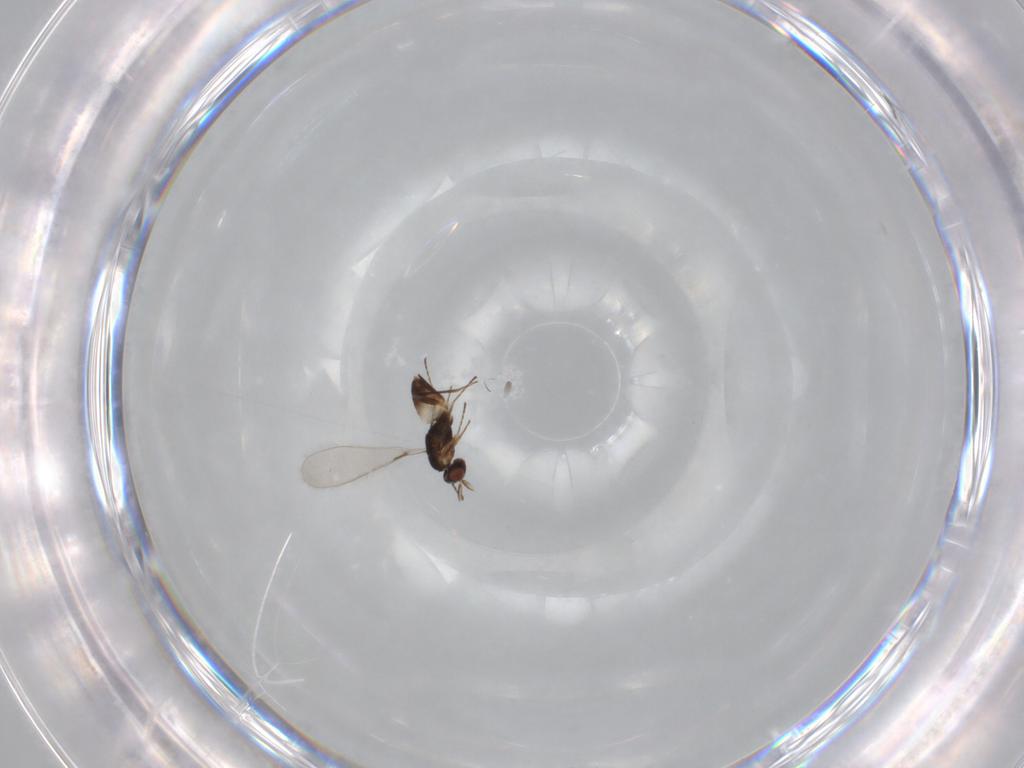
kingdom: Animalia
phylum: Arthropoda
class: Insecta
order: Hymenoptera
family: Mymaridae
